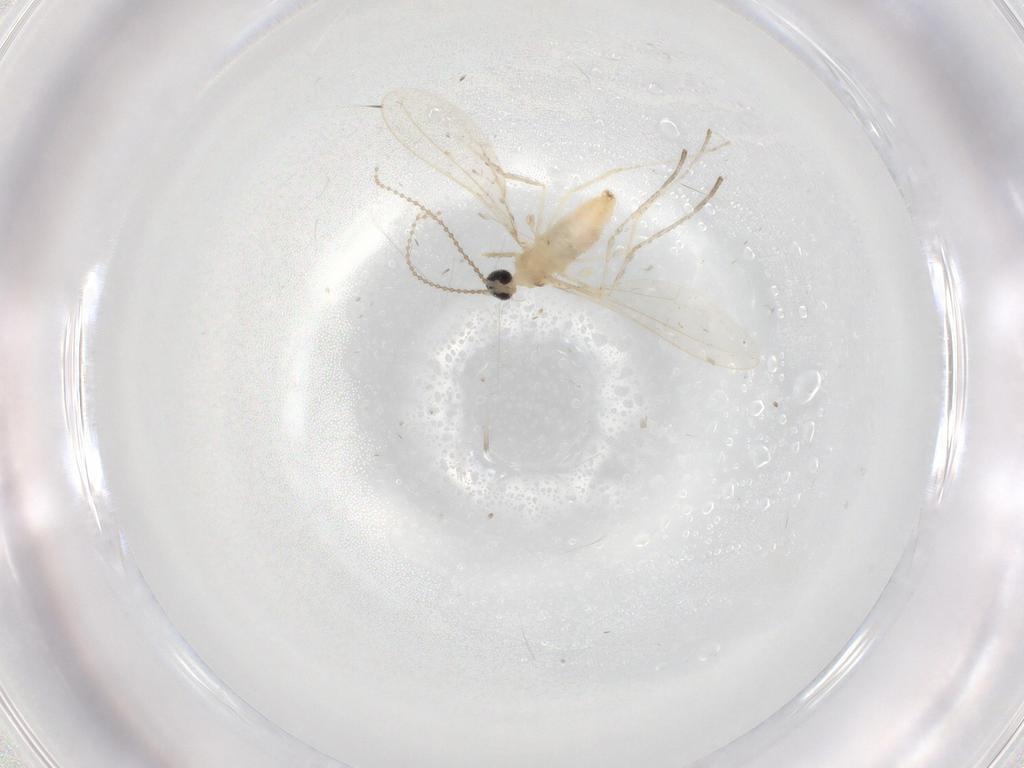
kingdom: Animalia
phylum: Arthropoda
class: Insecta
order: Diptera
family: Cecidomyiidae
